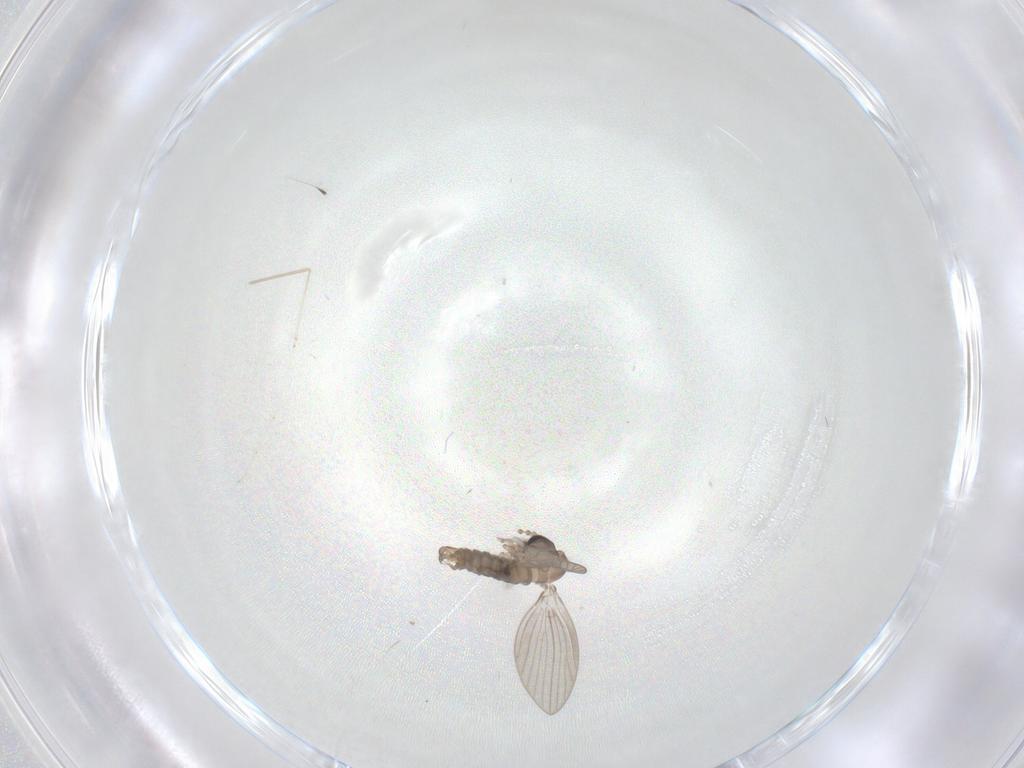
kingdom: Animalia
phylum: Arthropoda
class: Insecta
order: Diptera
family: Psychodidae
